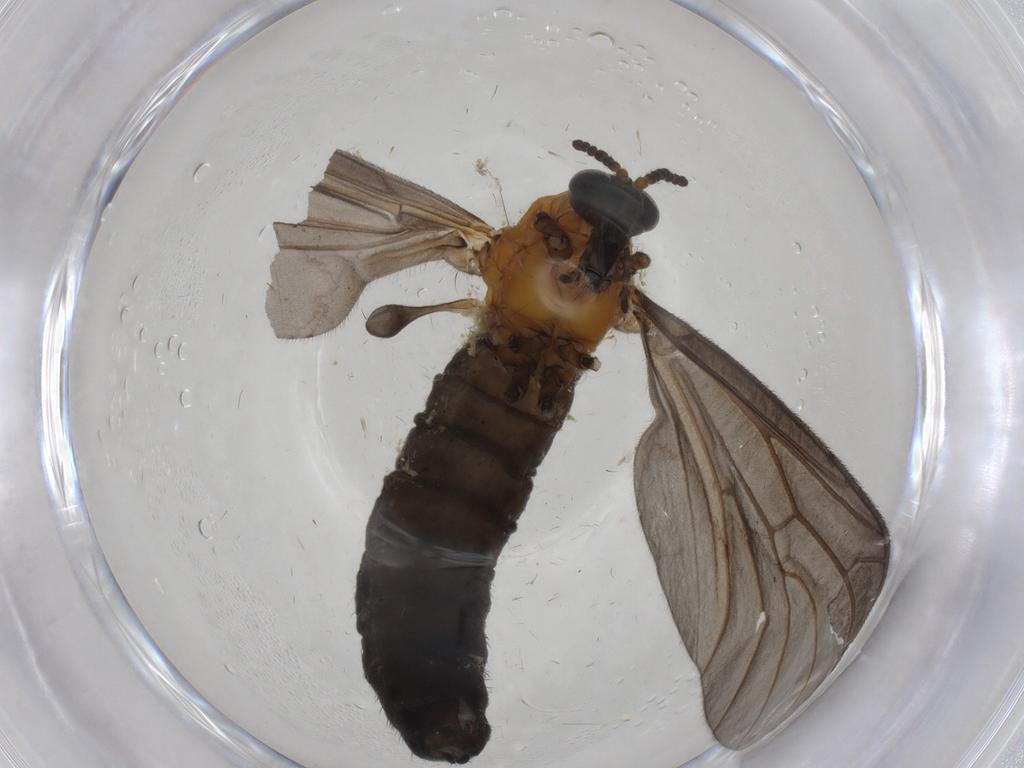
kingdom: Animalia
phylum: Arthropoda
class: Insecta
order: Diptera
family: Bibionidae
